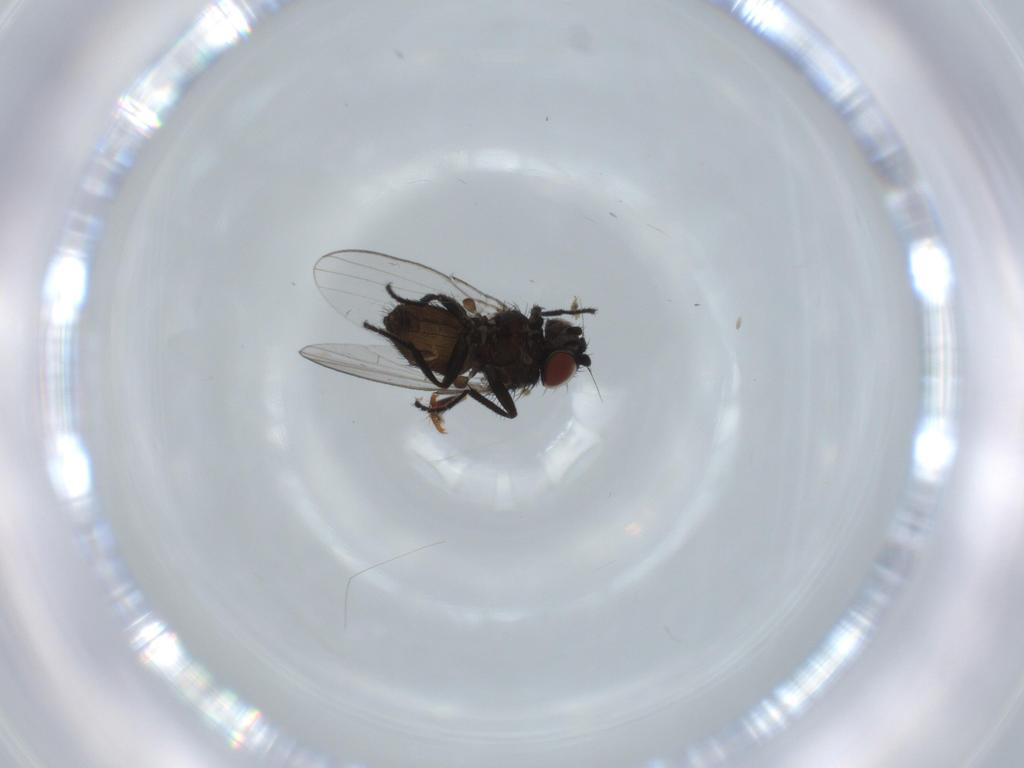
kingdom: Animalia
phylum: Arthropoda
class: Insecta
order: Diptera
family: Milichiidae
